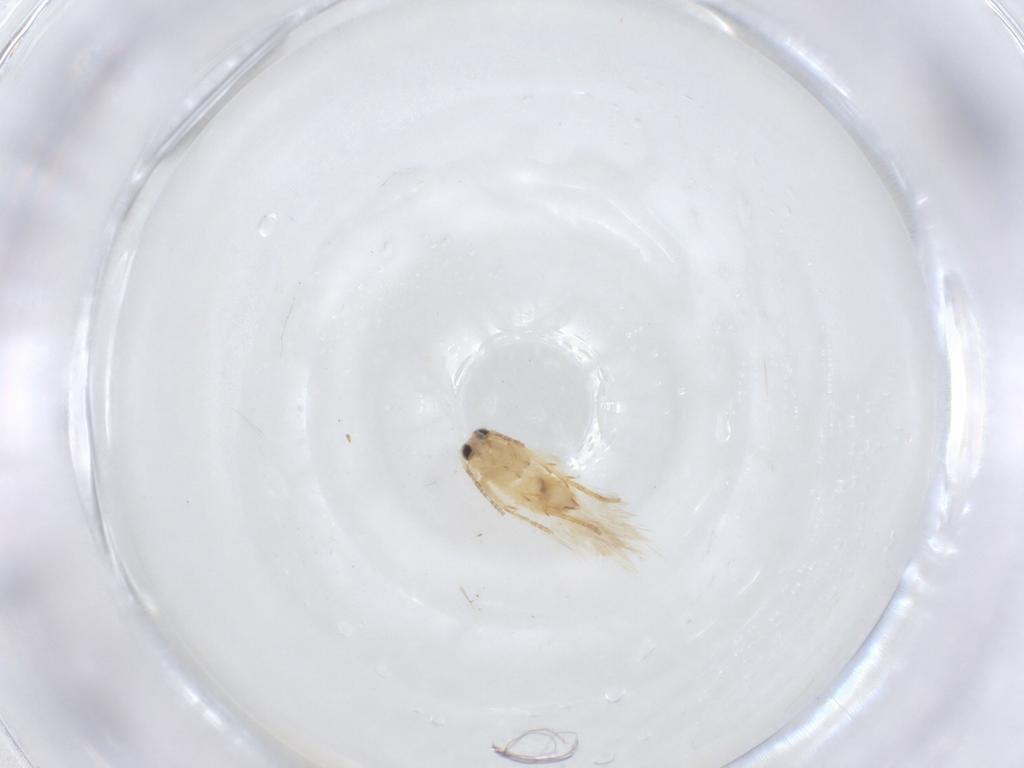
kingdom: Animalia
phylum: Arthropoda
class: Insecta
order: Lepidoptera
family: Nepticulidae
